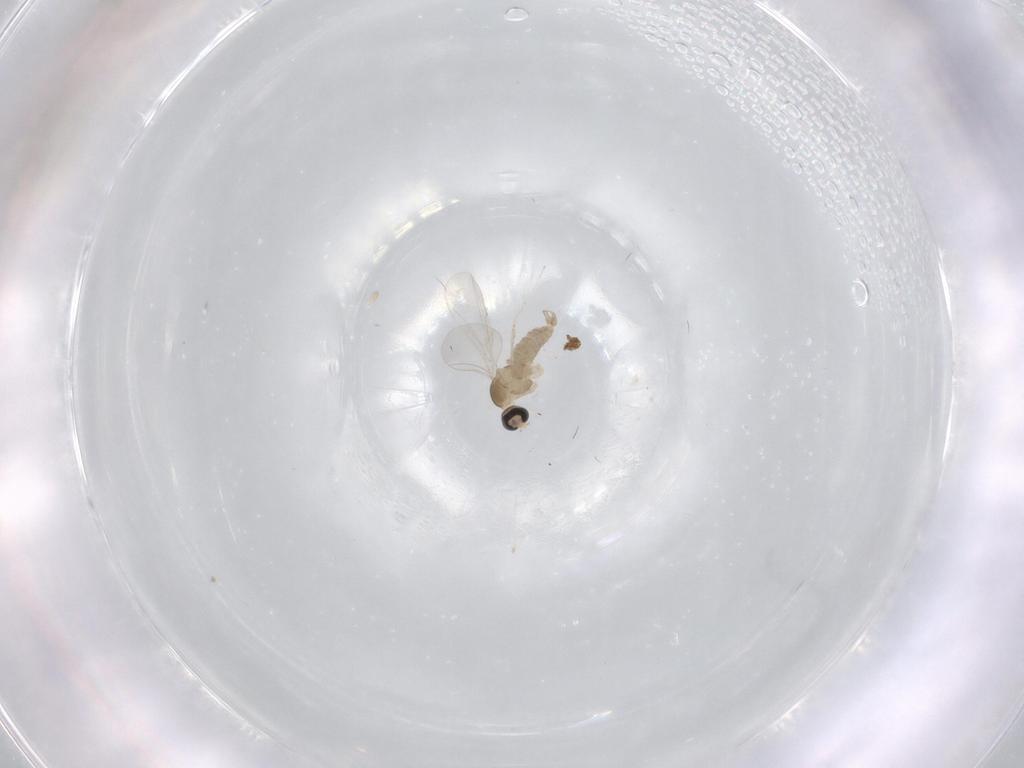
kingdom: Animalia
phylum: Arthropoda
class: Insecta
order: Diptera
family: Cecidomyiidae
